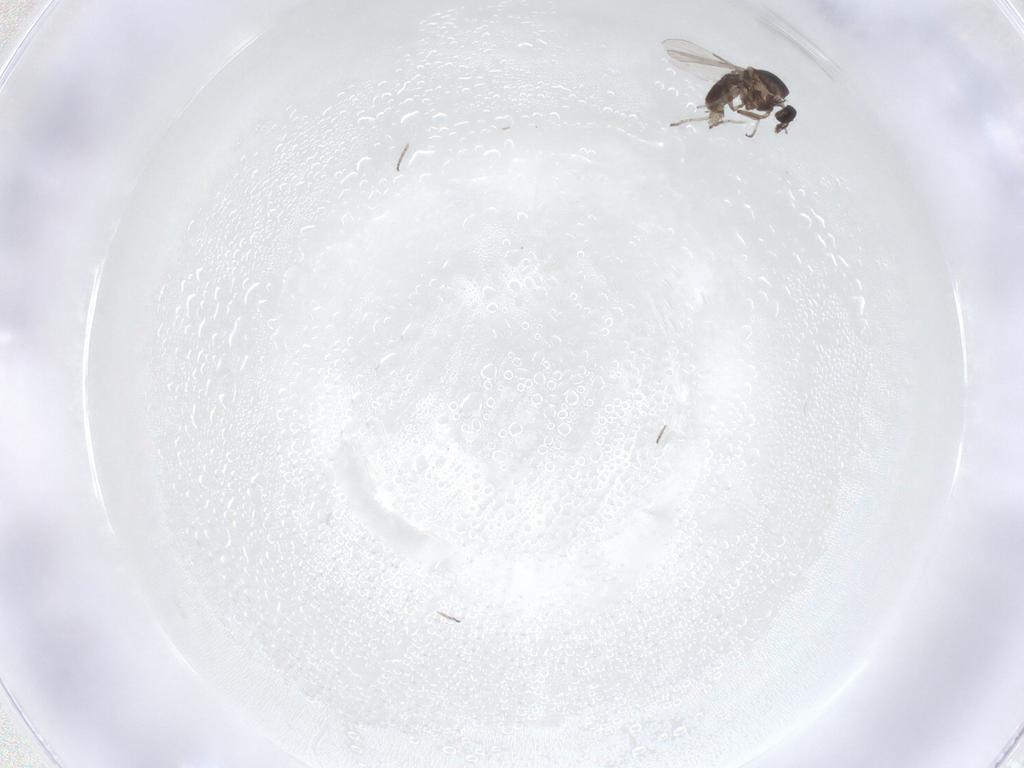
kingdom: Animalia
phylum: Arthropoda
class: Insecta
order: Diptera
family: Ceratopogonidae
